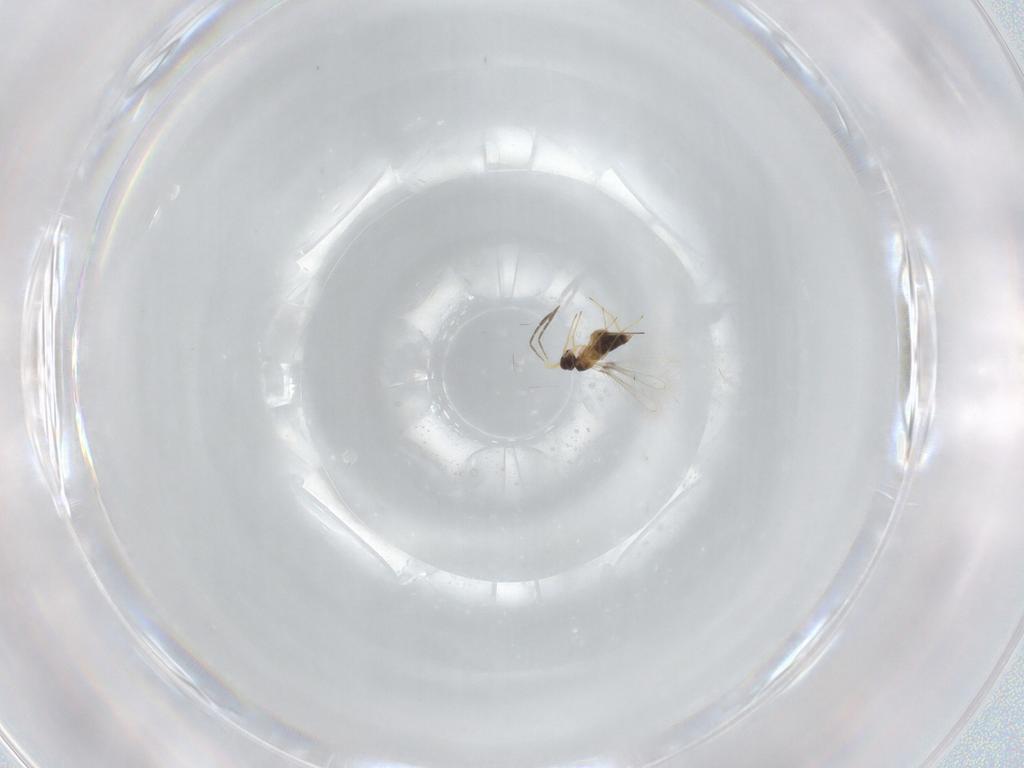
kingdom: Animalia
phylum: Arthropoda
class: Insecta
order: Hymenoptera
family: Mymaridae
